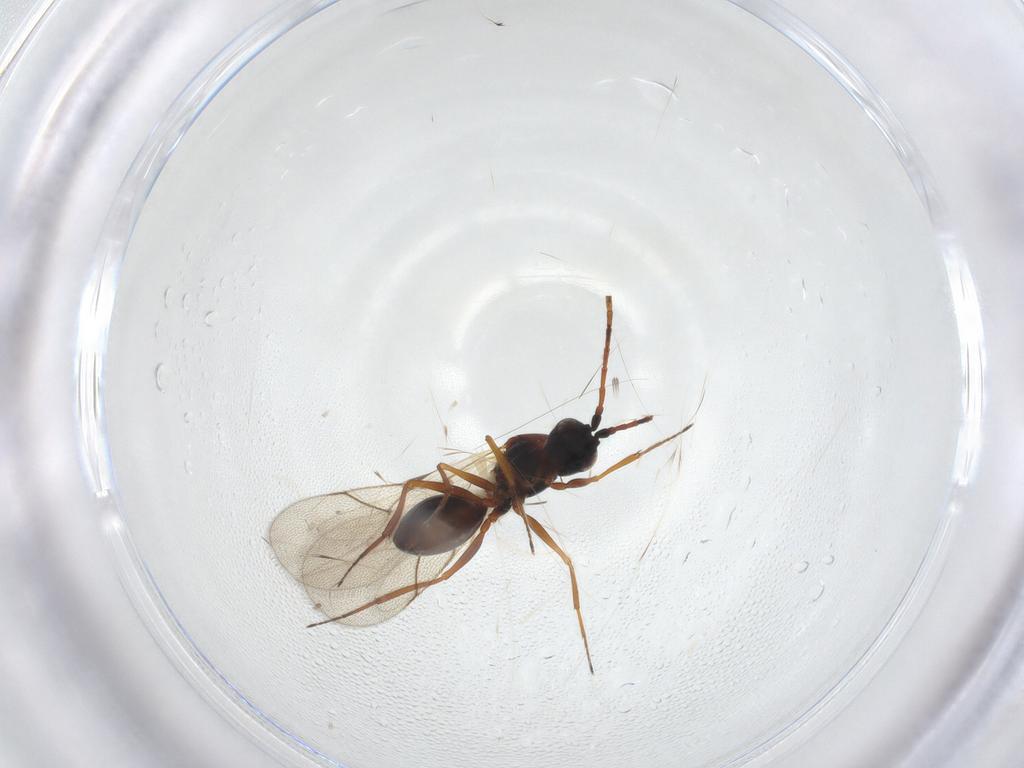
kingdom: Animalia
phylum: Arthropoda
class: Insecta
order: Hymenoptera
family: Figitidae
